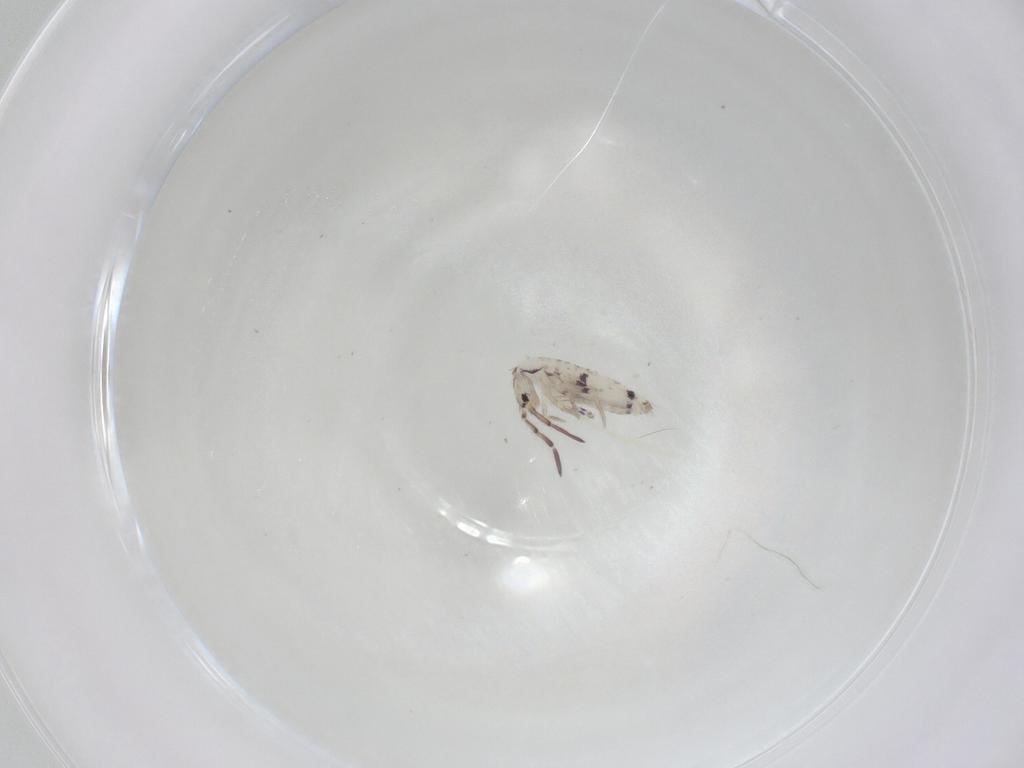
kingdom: Animalia
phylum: Arthropoda
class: Collembola
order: Entomobryomorpha
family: Entomobryidae
